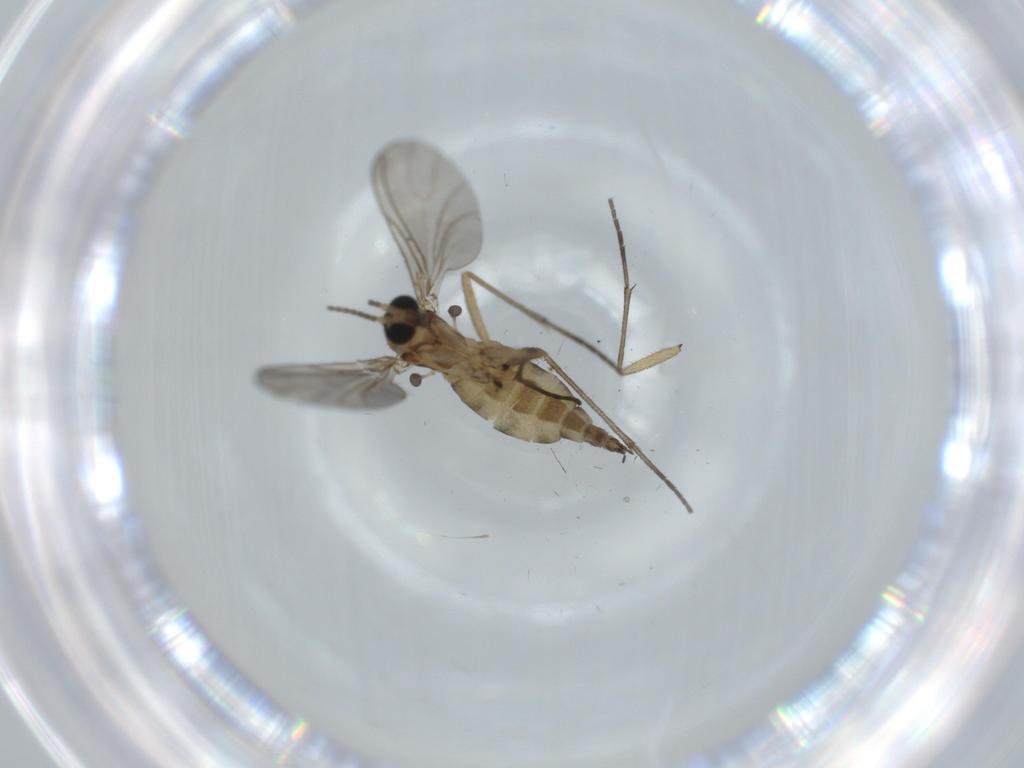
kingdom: Animalia
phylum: Arthropoda
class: Insecta
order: Diptera
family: Sciaridae
